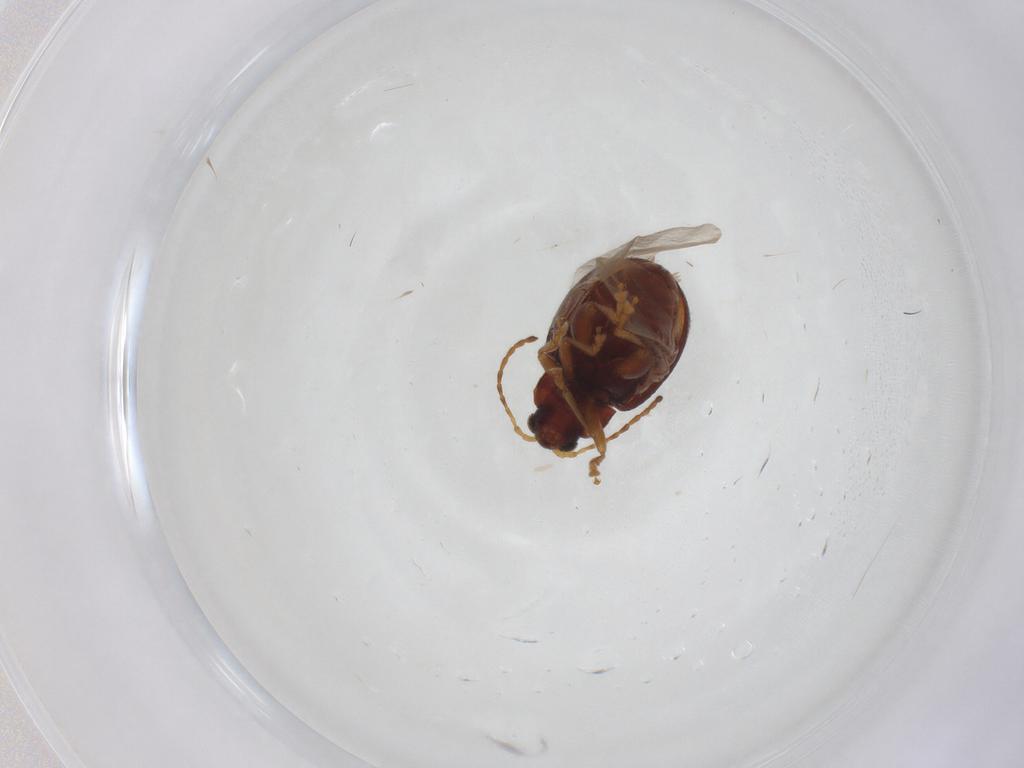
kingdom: Animalia
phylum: Arthropoda
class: Insecta
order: Coleoptera
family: Chrysomelidae
